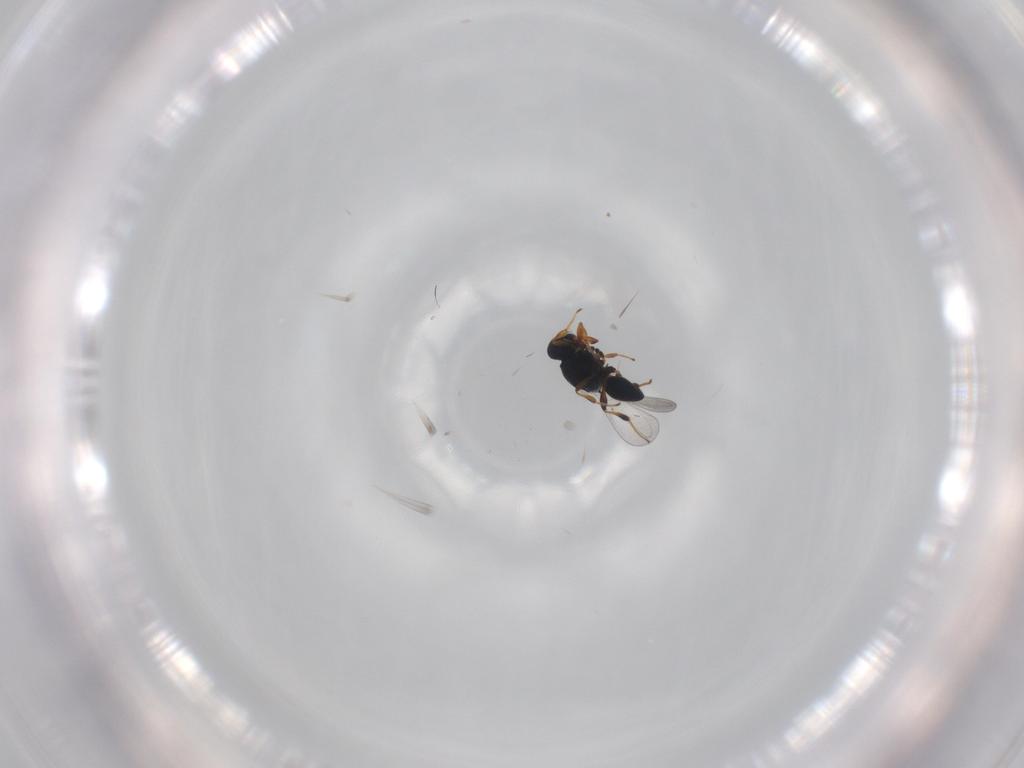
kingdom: Animalia
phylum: Arthropoda
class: Insecta
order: Hymenoptera
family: Platygastridae
